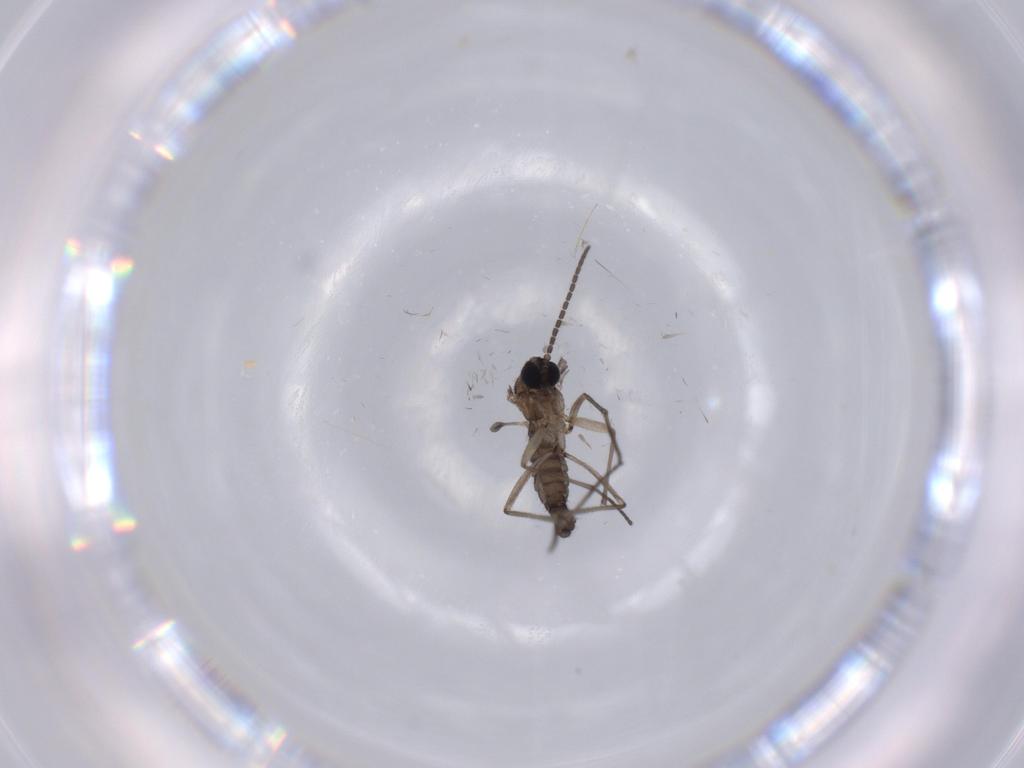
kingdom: Animalia
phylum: Arthropoda
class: Insecta
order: Diptera
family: Sciaridae
